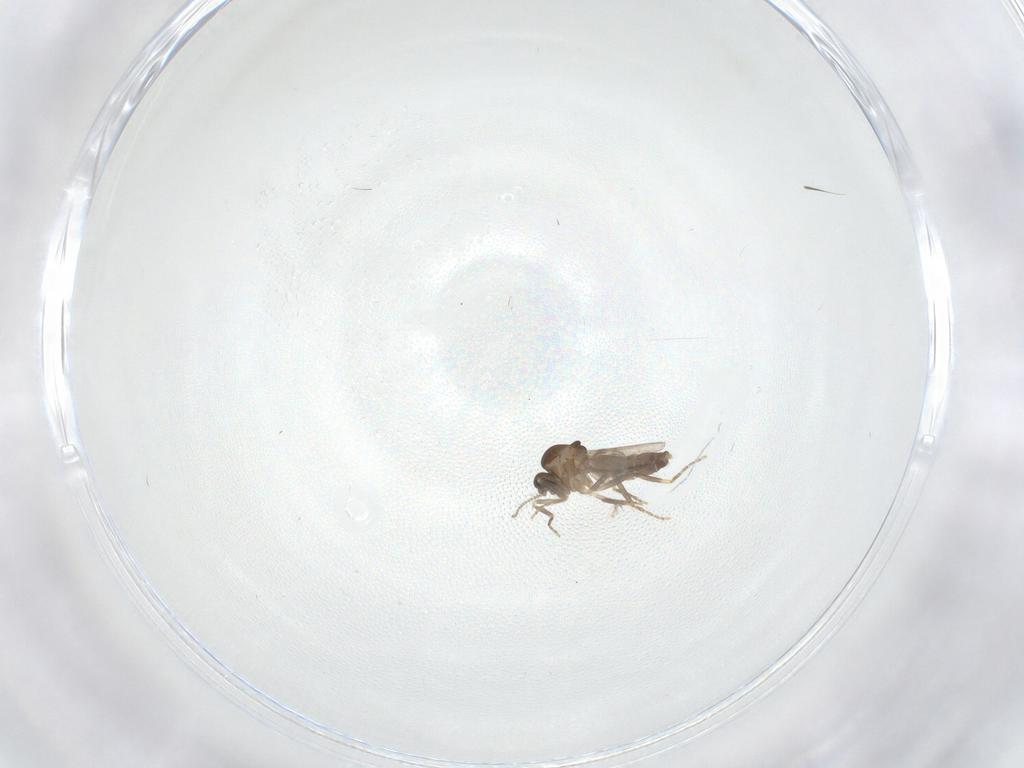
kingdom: Animalia
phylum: Arthropoda
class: Insecta
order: Diptera
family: Ceratopogonidae
